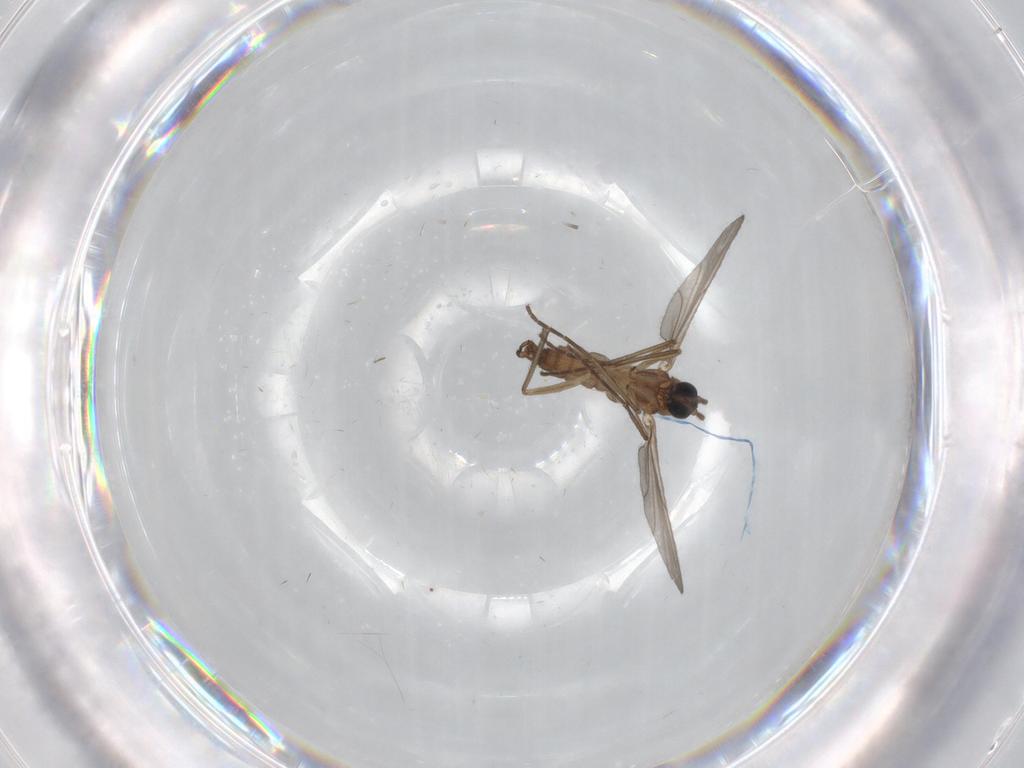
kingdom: Animalia
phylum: Arthropoda
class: Insecta
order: Diptera
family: Sciaridae
